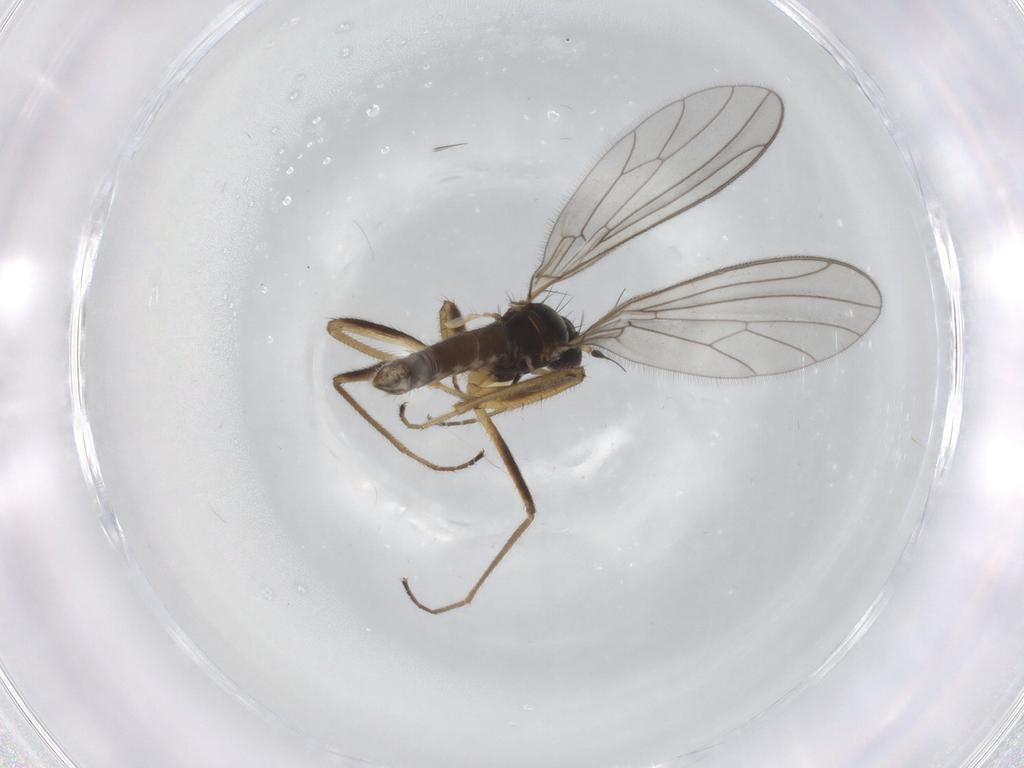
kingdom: Animalia
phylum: Arthropoda
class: Insecta
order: Diptera
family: Empididae
